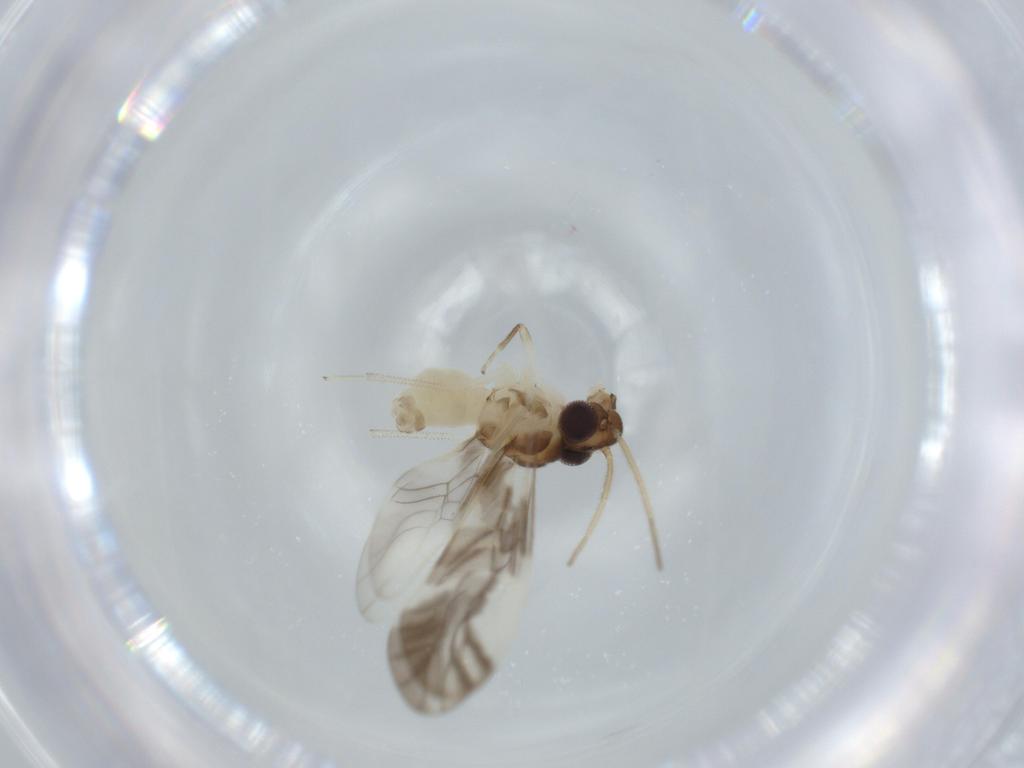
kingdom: Animalia
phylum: Arthropoda
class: Insecta
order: Psocodea
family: Caeciliusidae
